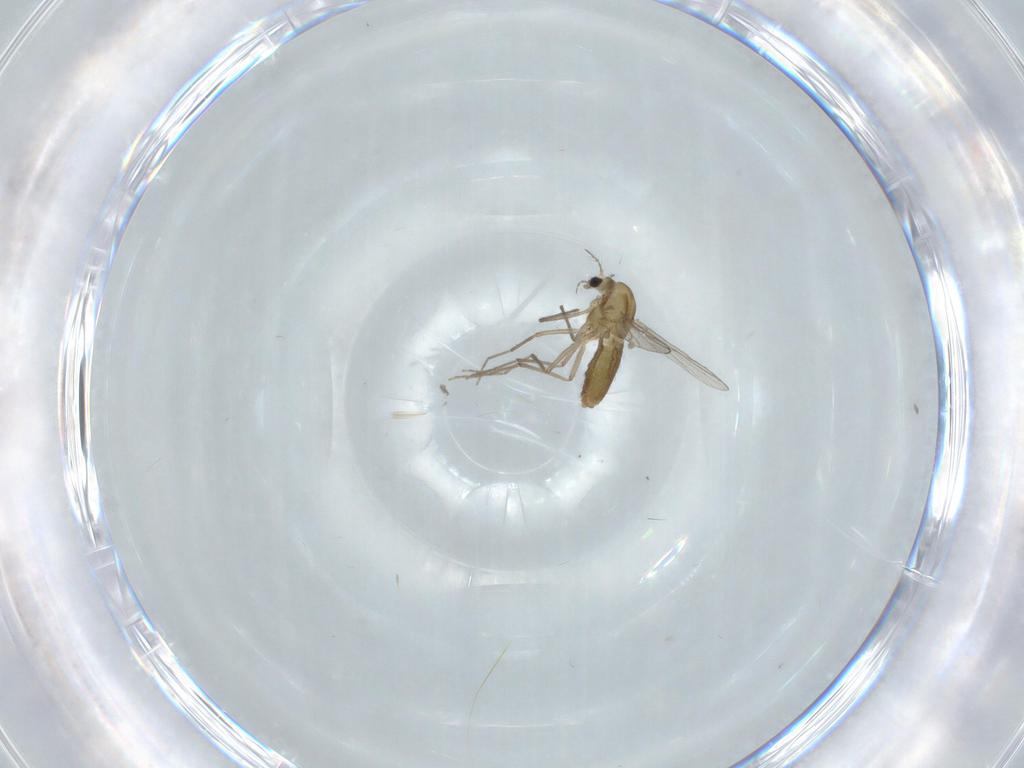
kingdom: Animalia
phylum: Arthropoda
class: Insecta
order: Diptera
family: Chironomidae
